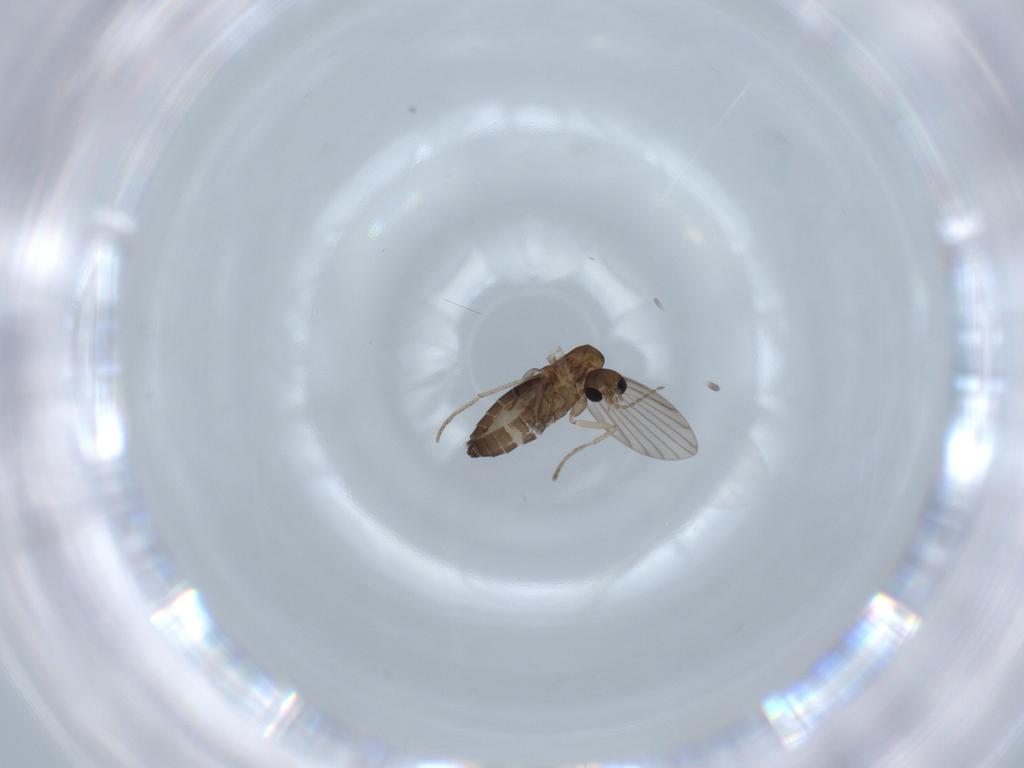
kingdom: Animalia
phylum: Arthropoda
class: Insecta
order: Diptera
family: Psychodidae
